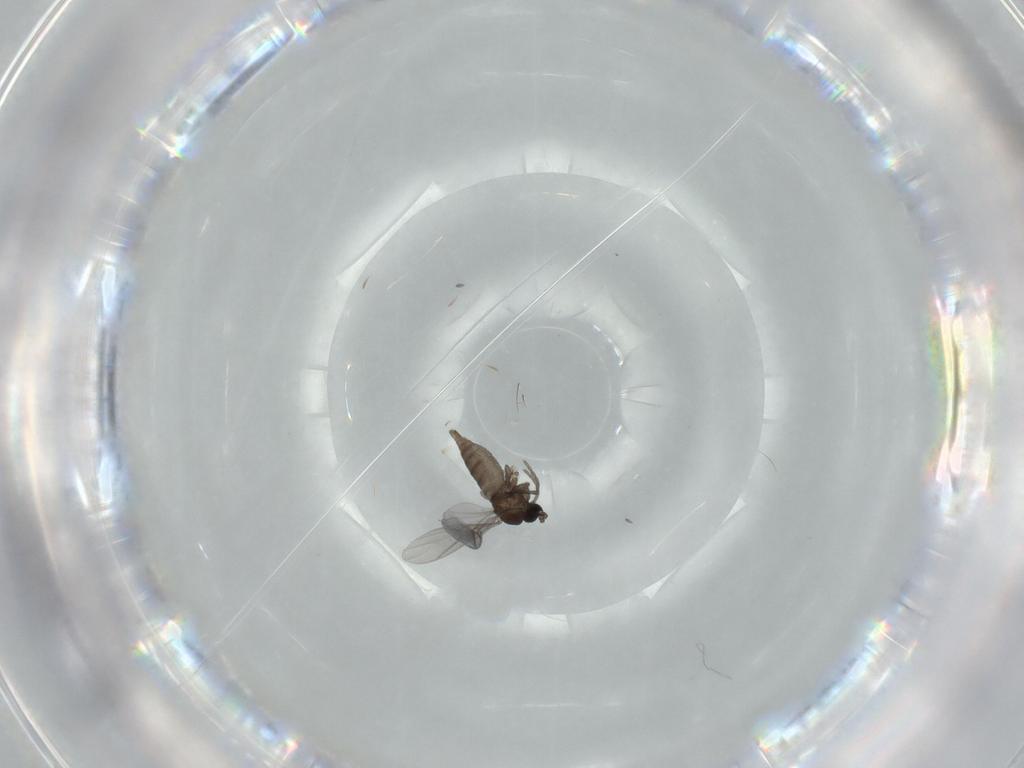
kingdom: Animalia
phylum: Arthropoda
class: Insecta
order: Diptera
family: Sciaridae
